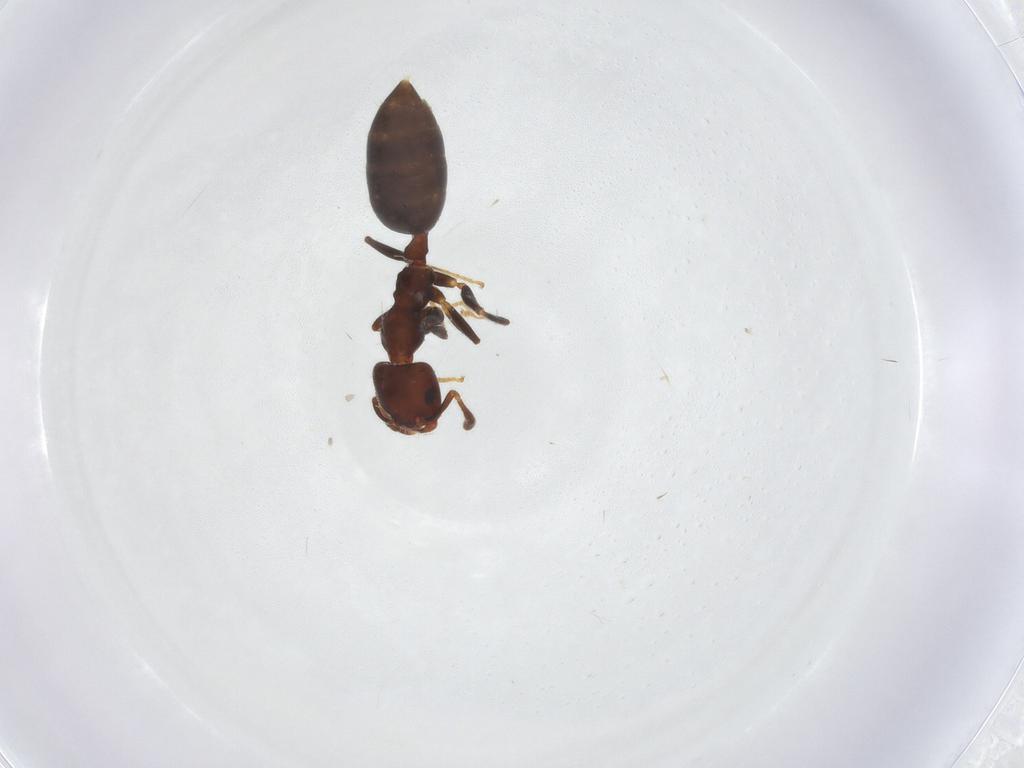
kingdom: Animalia
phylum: Arthropoda
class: Insecta
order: Hymenoptera
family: Formicidae
